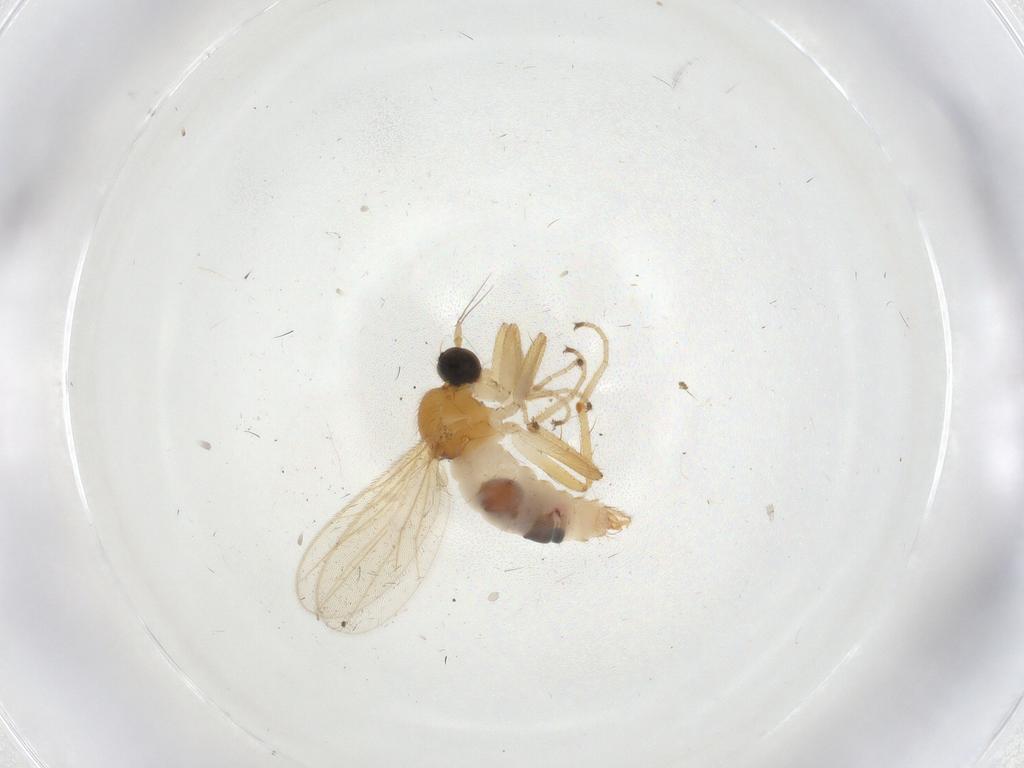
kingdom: Animalia
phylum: Arthropoda
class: Insecta
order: Diptera
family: Hybotidae
